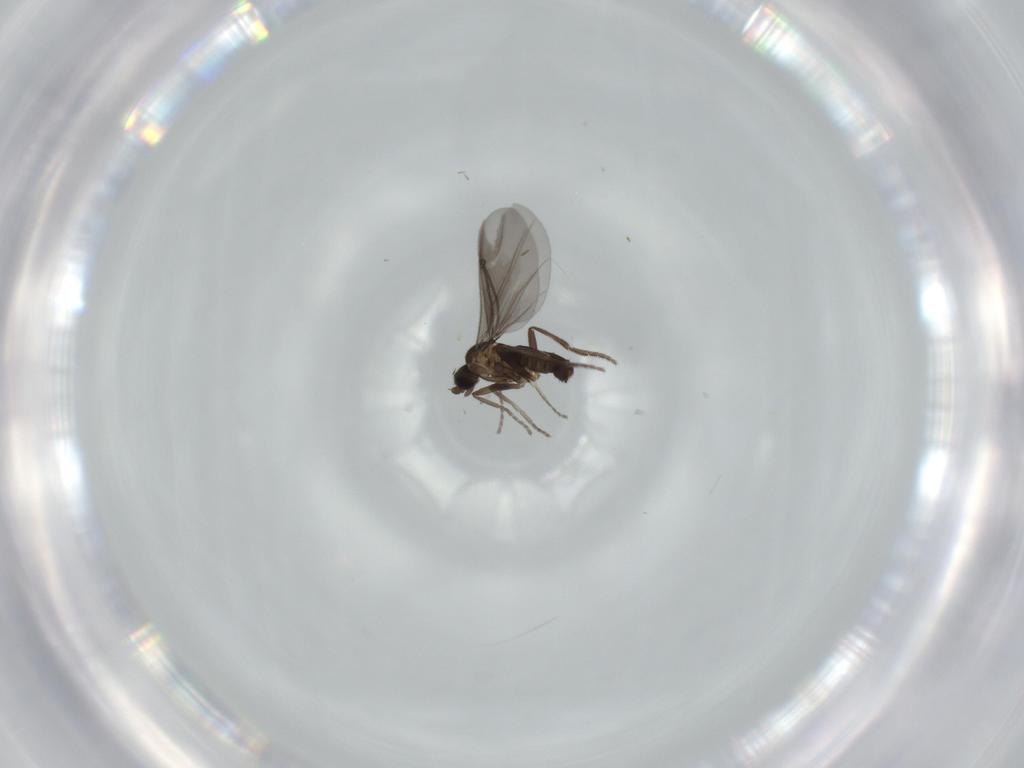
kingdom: Animalia
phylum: Arthropoda
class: Insecta
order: Diptera
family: Phoridae
